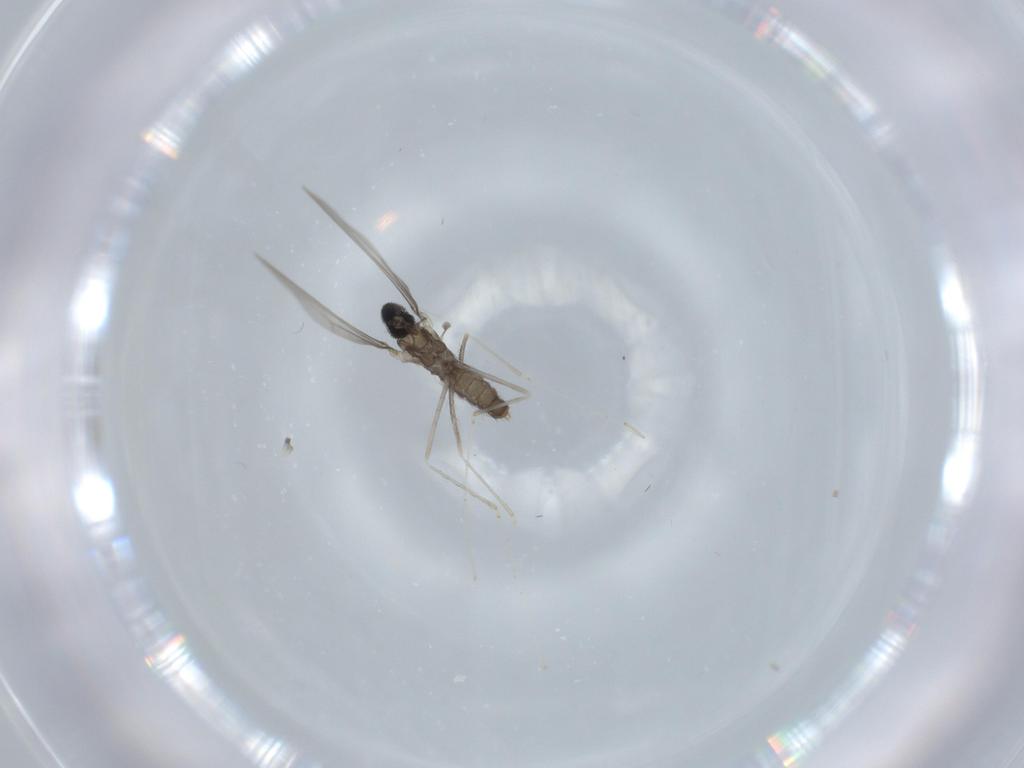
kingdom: Animalia
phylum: Arthropoda
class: Insecta
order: Diptera
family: Cecidomyiidae
